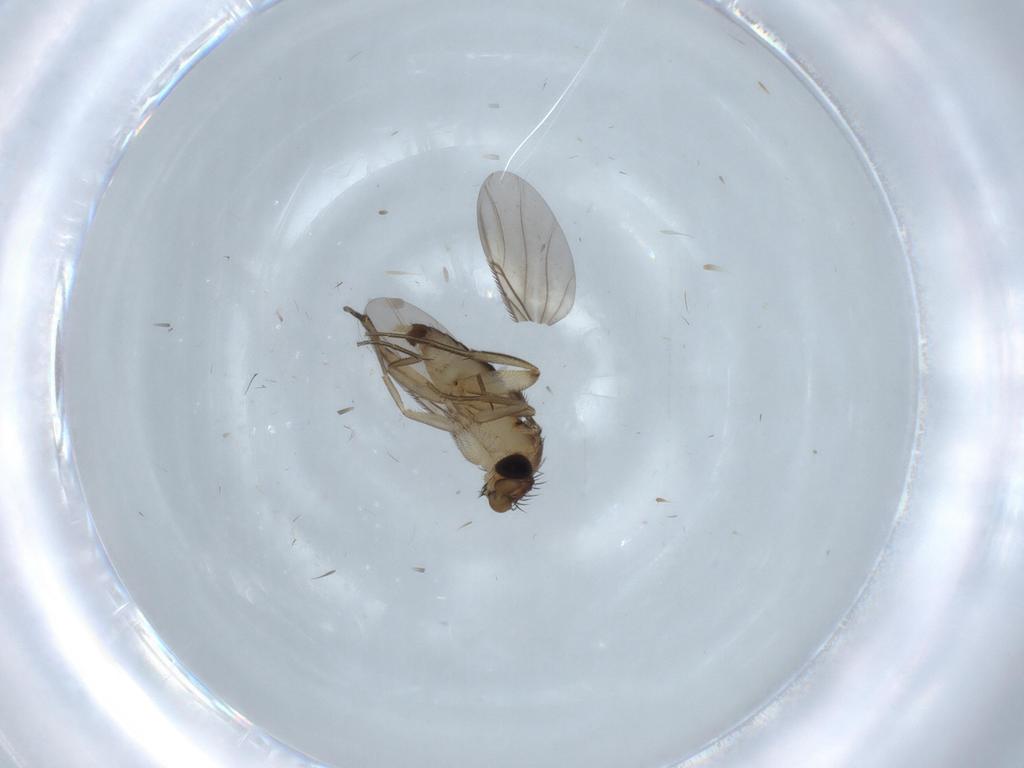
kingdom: Animalia
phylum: Arthropoda
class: Insecta
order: Diptera
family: Phoridae
